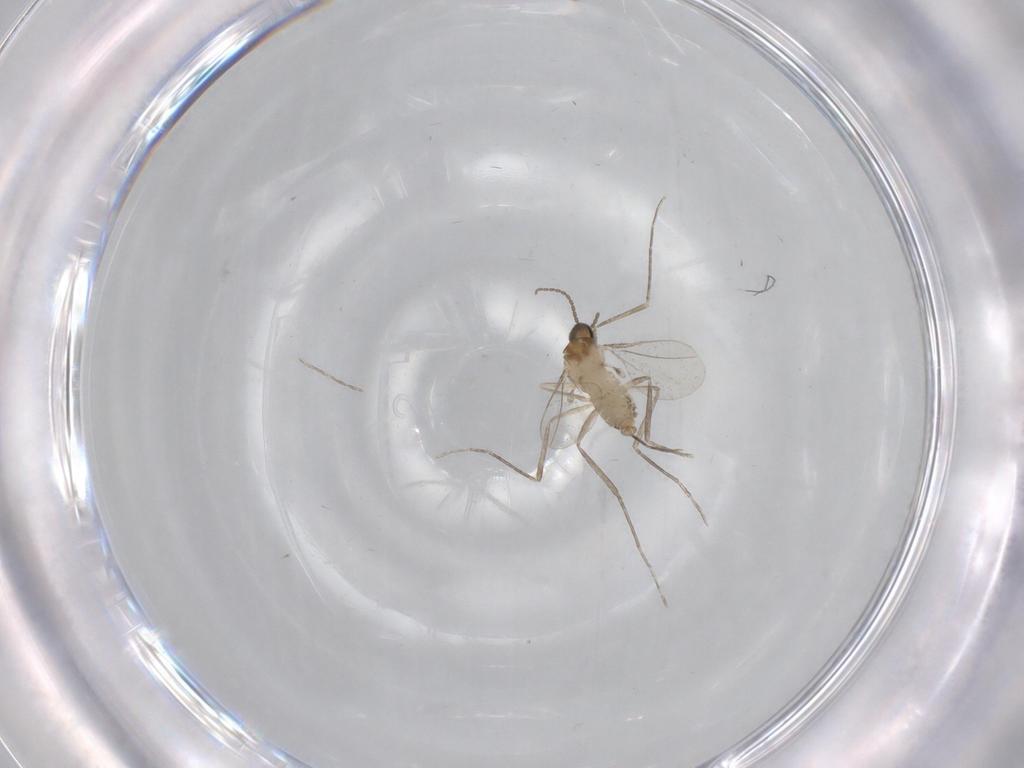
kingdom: Animalia
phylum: Arthropoda
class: Insecta
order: Diptera
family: Cecidomyiidae
